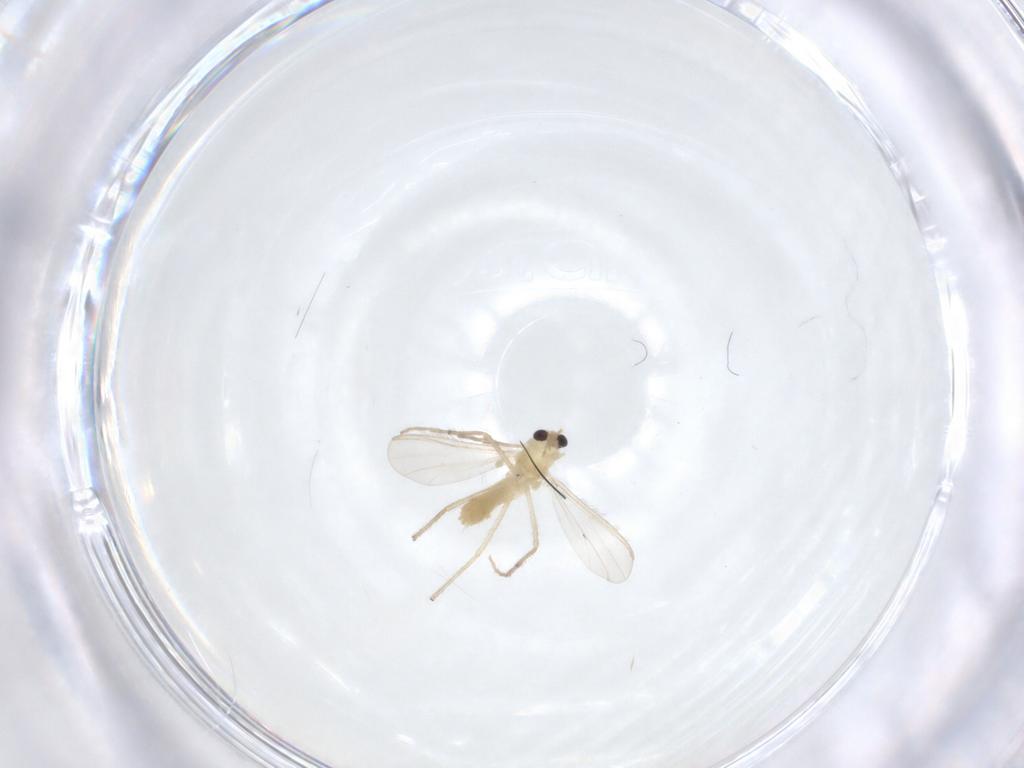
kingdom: Animalia
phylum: Arthropoda
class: Insecta
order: Diptera
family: Chironomidae
